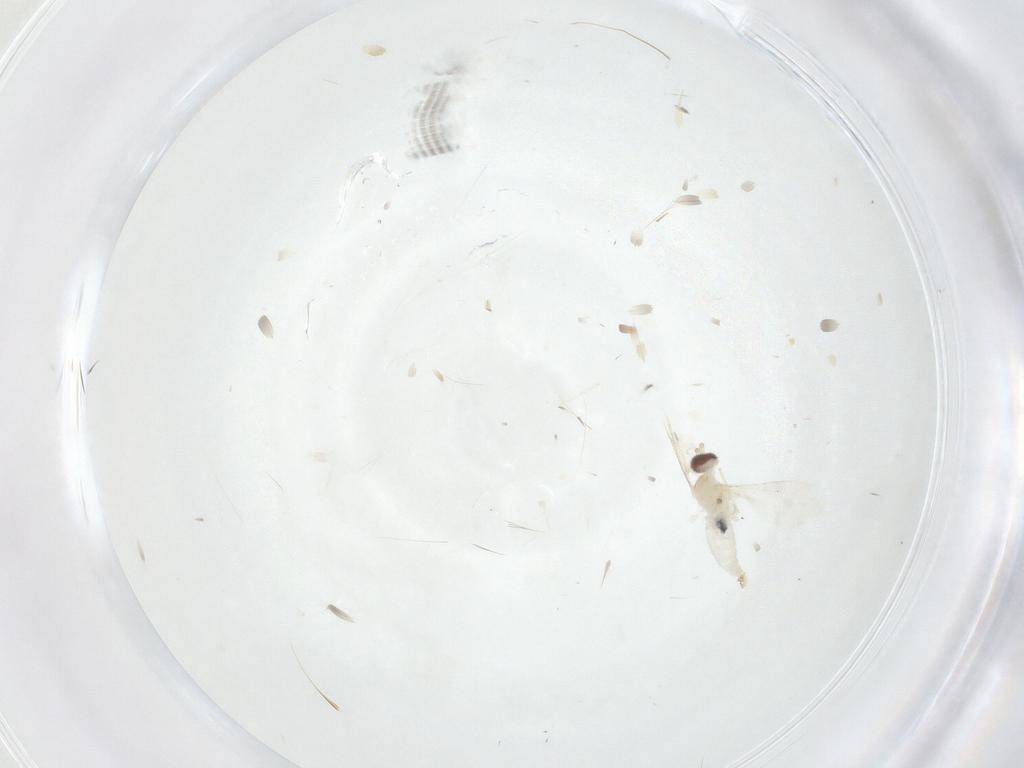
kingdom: Animalia
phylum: Arthropoda
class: Insecta
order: Diptera
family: Cecidomyiidae
